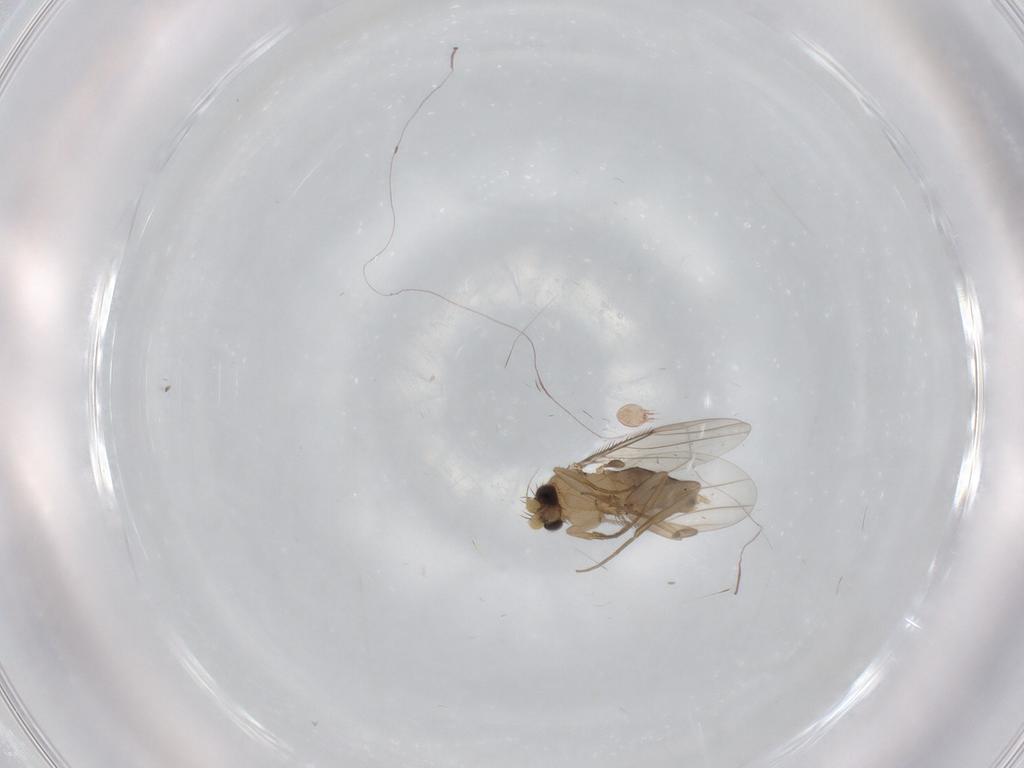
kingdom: Animalia
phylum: Arthropoda
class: Insecta
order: Diptera
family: Phoridae
